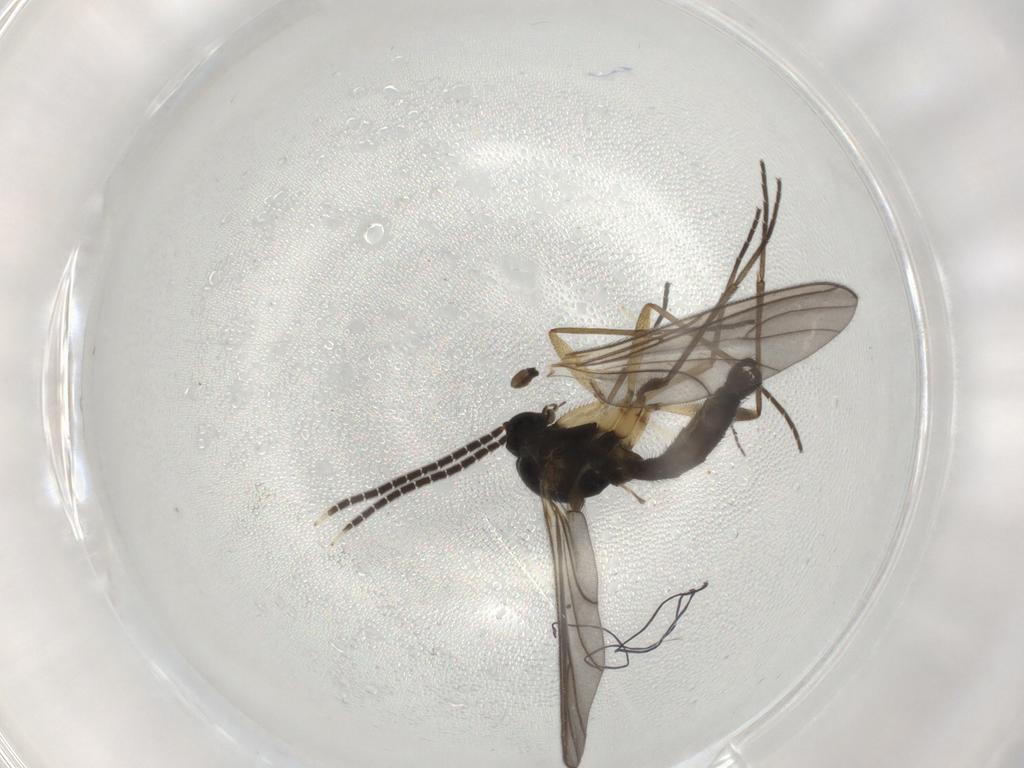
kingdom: Animalia
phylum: Arthropoda
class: Insecta
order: Diptera
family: Sciaridae
